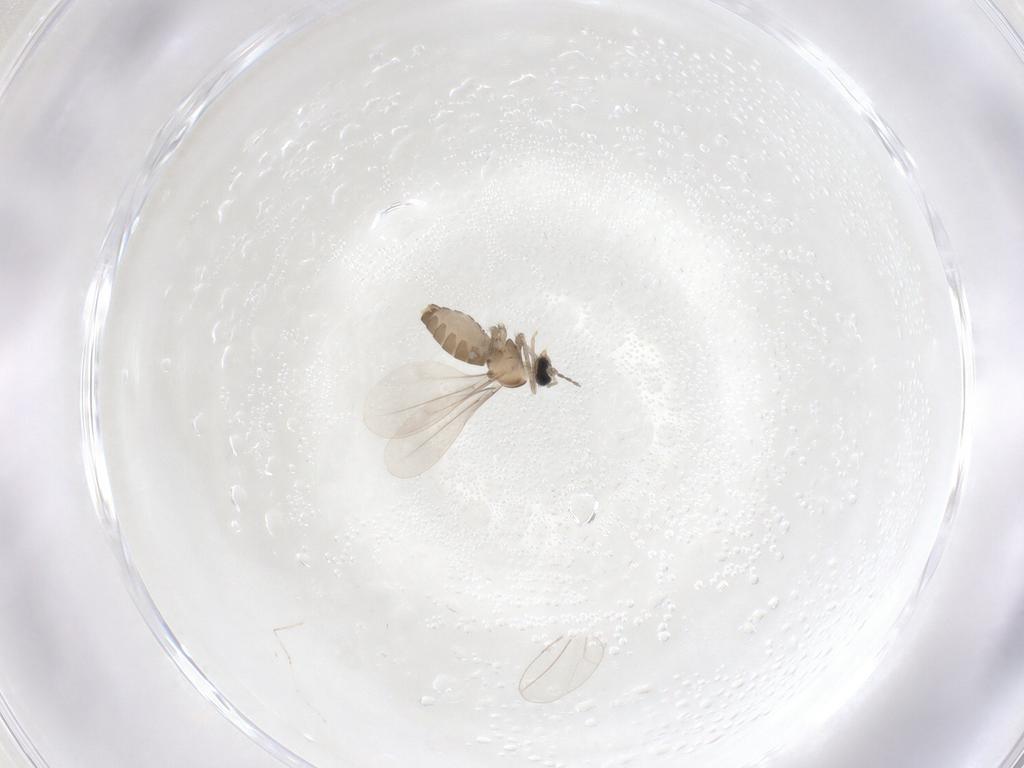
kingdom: Animalia
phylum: Arthropoda
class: Insecta
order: Diptera
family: Cecidomyiidae
